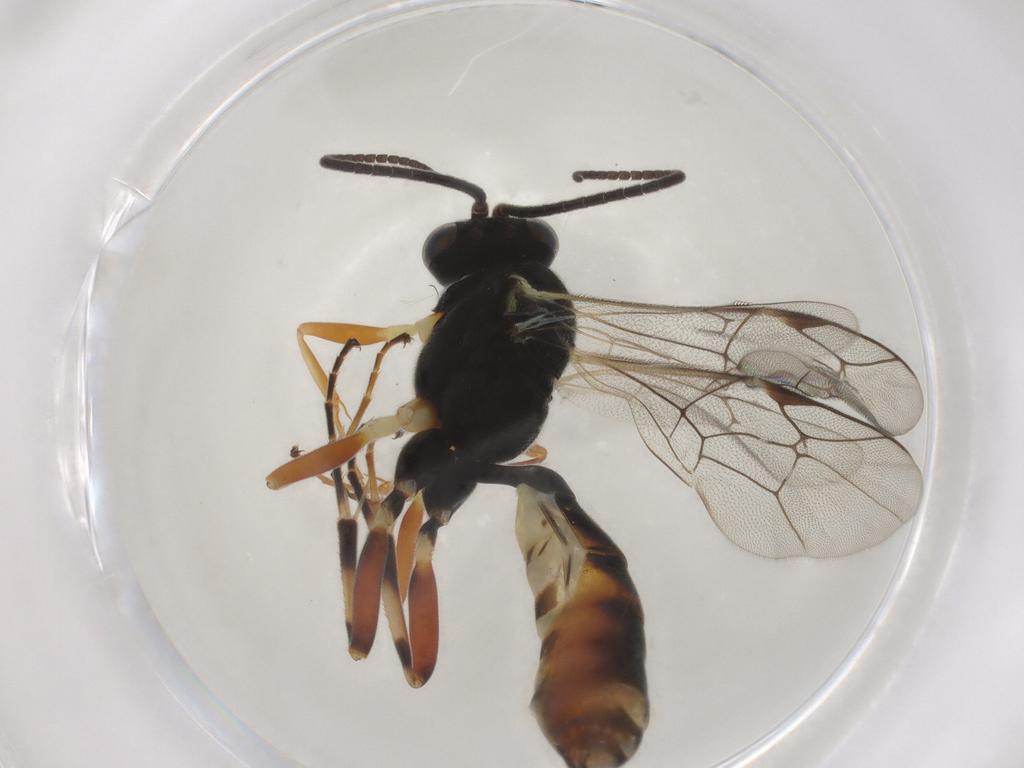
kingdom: Animalia
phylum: Arthropoda
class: Insecta
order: Hymenoptera
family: Ichneumonidae
